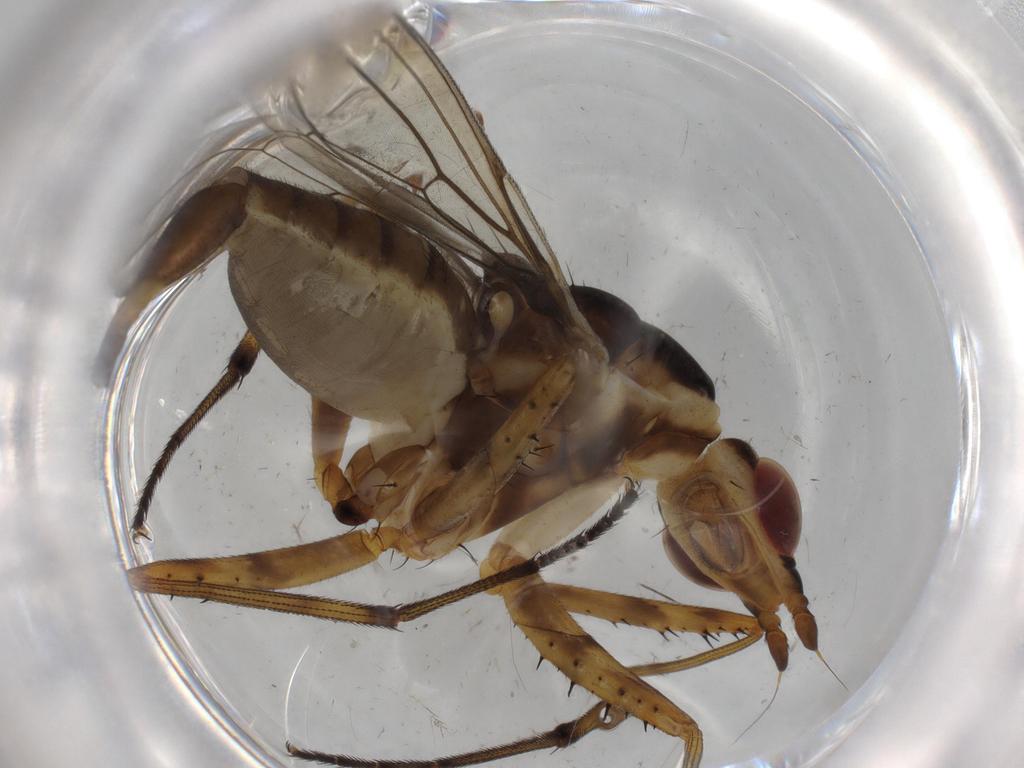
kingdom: Animalia
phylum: Arthropoda
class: Insecta
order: Diptera
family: Neriidae
